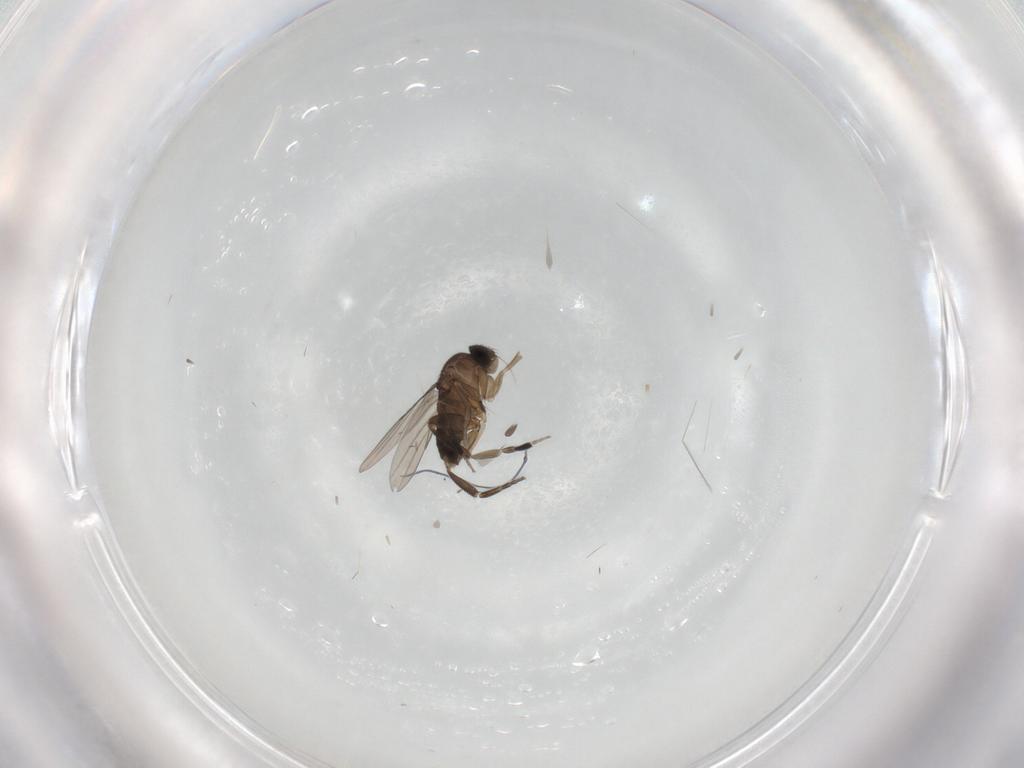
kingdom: Animalia
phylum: Arthropoda
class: Insecta
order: Diptera
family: Phoridae
